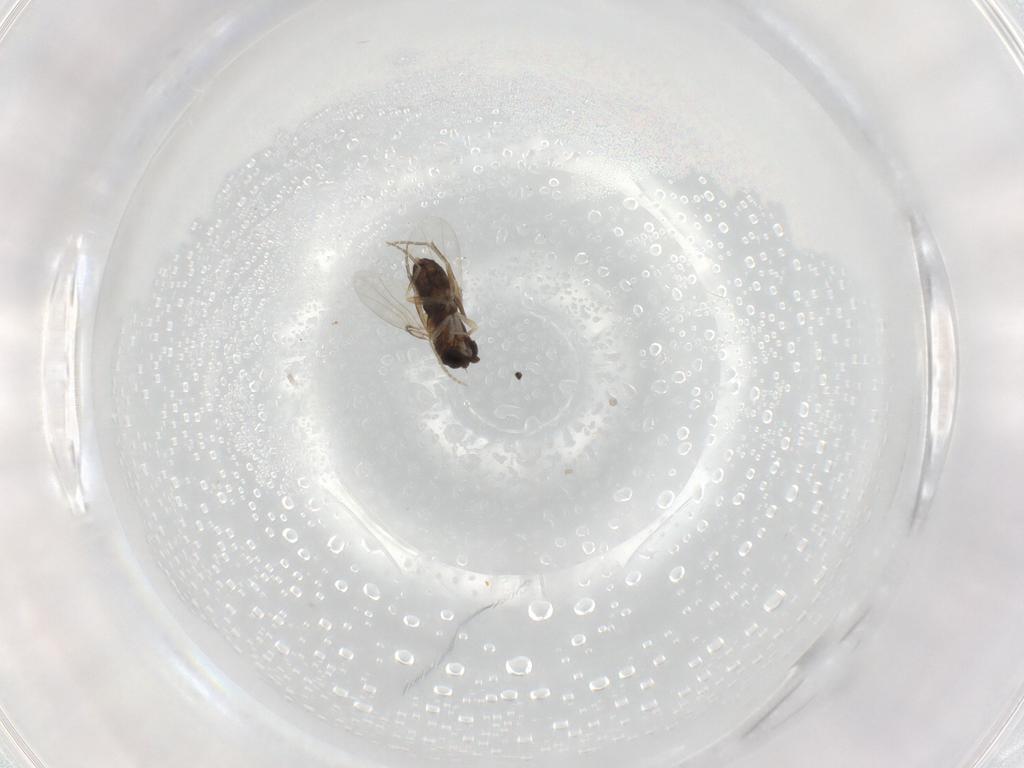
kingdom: Animalia
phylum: Arthropoda
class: Insecta
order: Diptera
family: Phoridae
